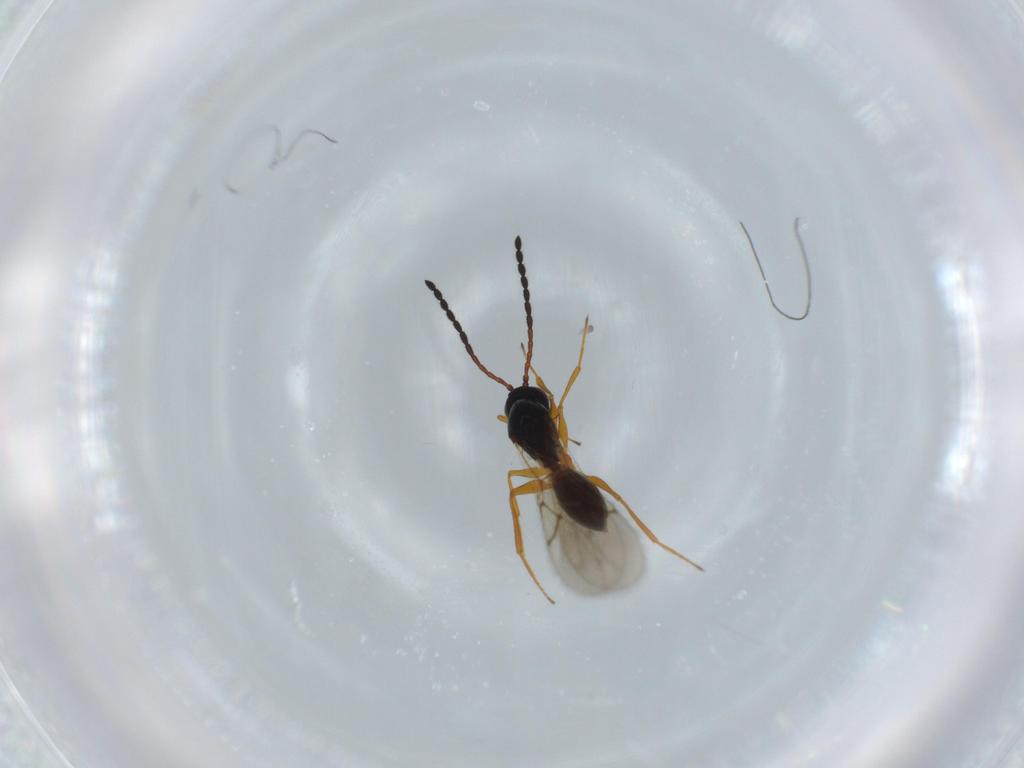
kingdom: Animalia
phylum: Arthropoda
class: Insecta
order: Hymenoptera
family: Figitidae
